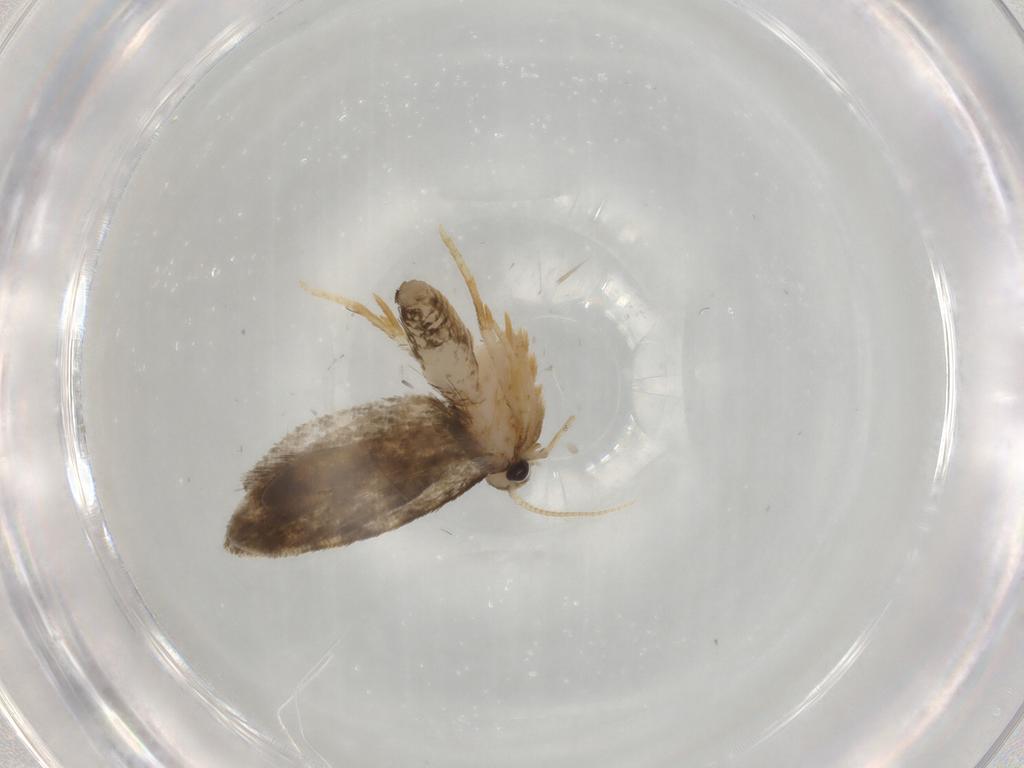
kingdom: Animalia
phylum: Arthropoda
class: Insecta
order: Lepidoptera
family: Psychidae
